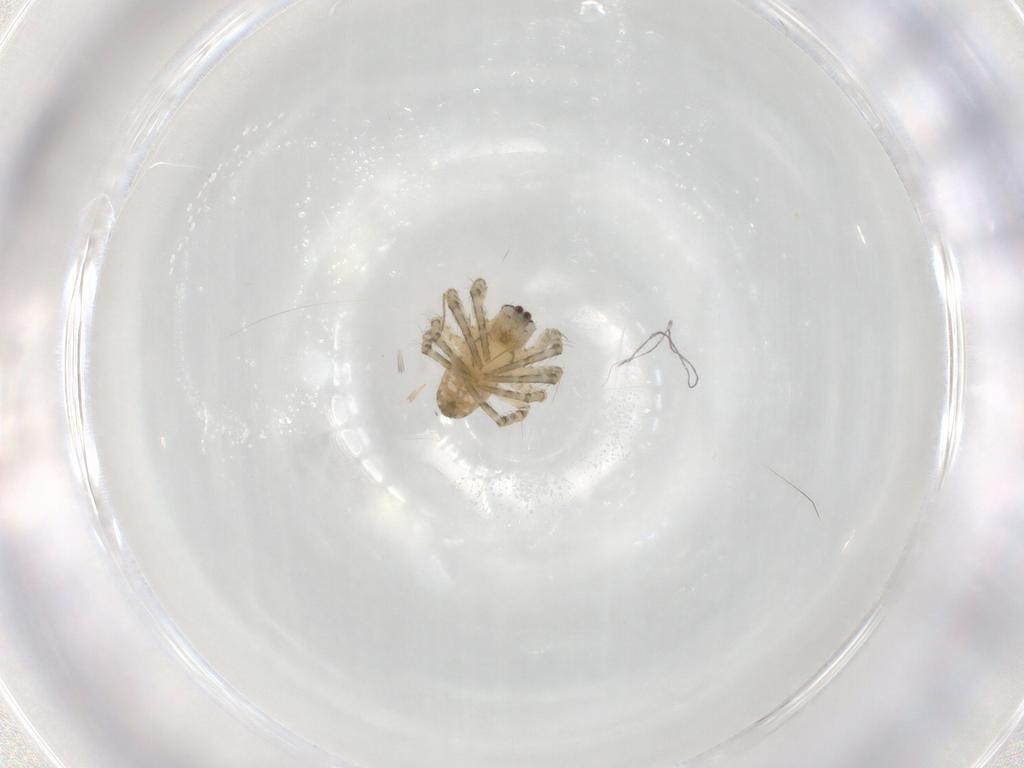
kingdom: Animalia
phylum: Arthropoda
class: Arachnida
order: Araneae
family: Araneidae
